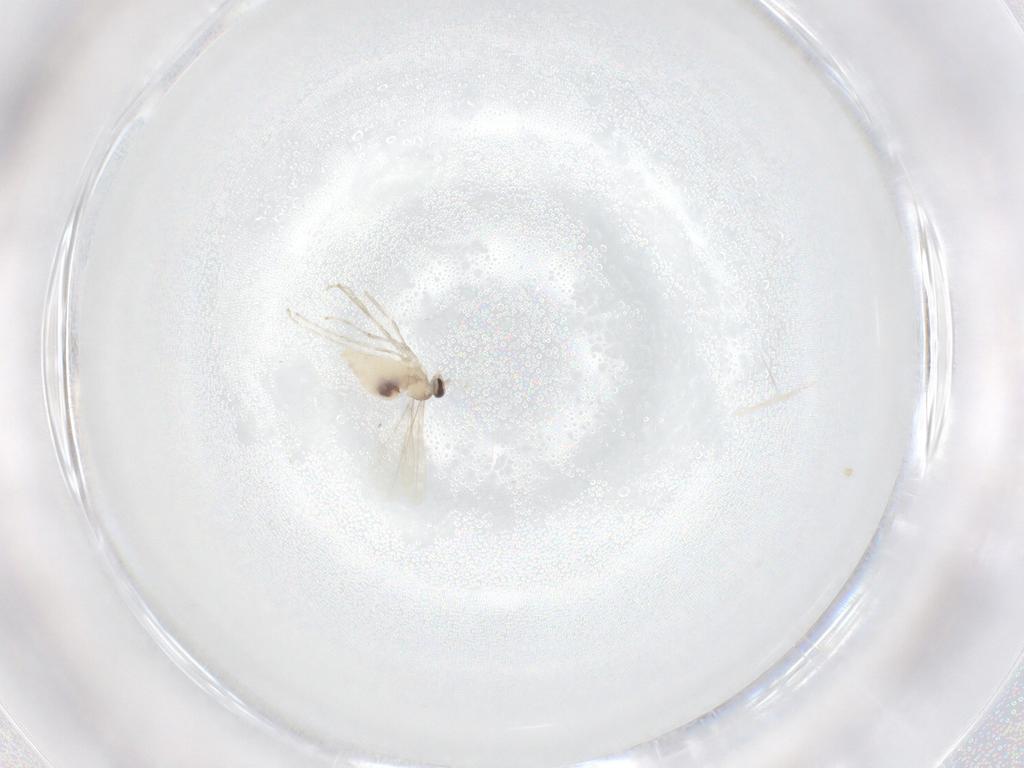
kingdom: Animalia
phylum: Arthropoda
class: Insecta
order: Diptera
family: Cecidomyiidae
